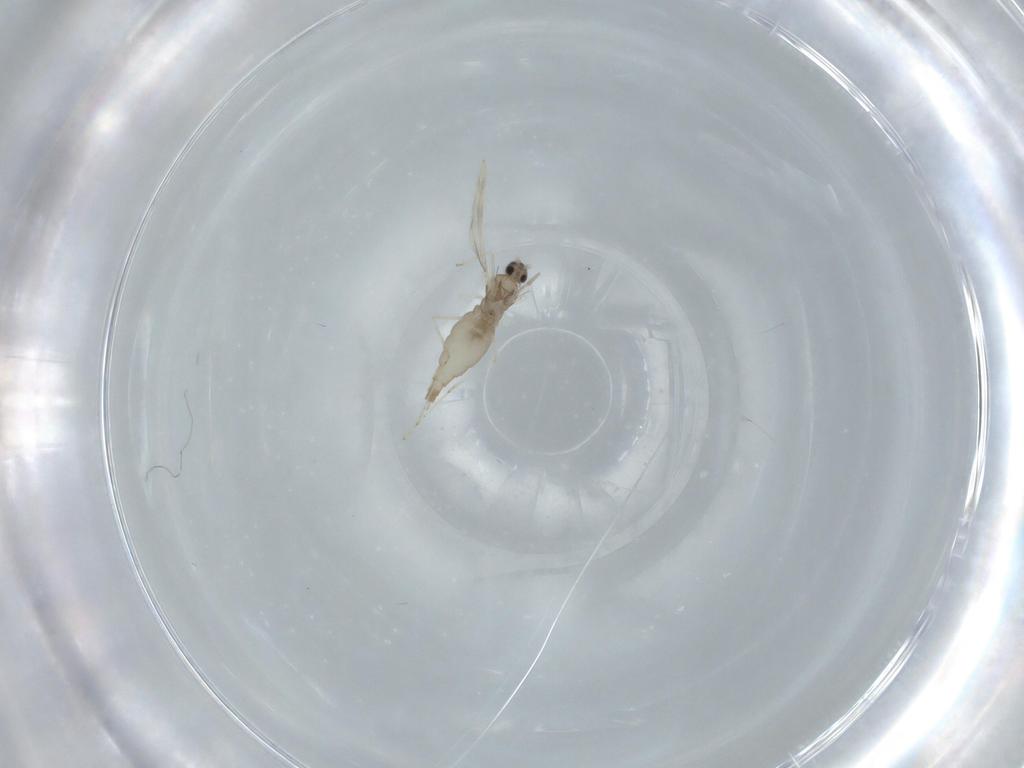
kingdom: Animalia
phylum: Arthropoda
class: Insecta
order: Diptera
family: Cecidomyiidae
